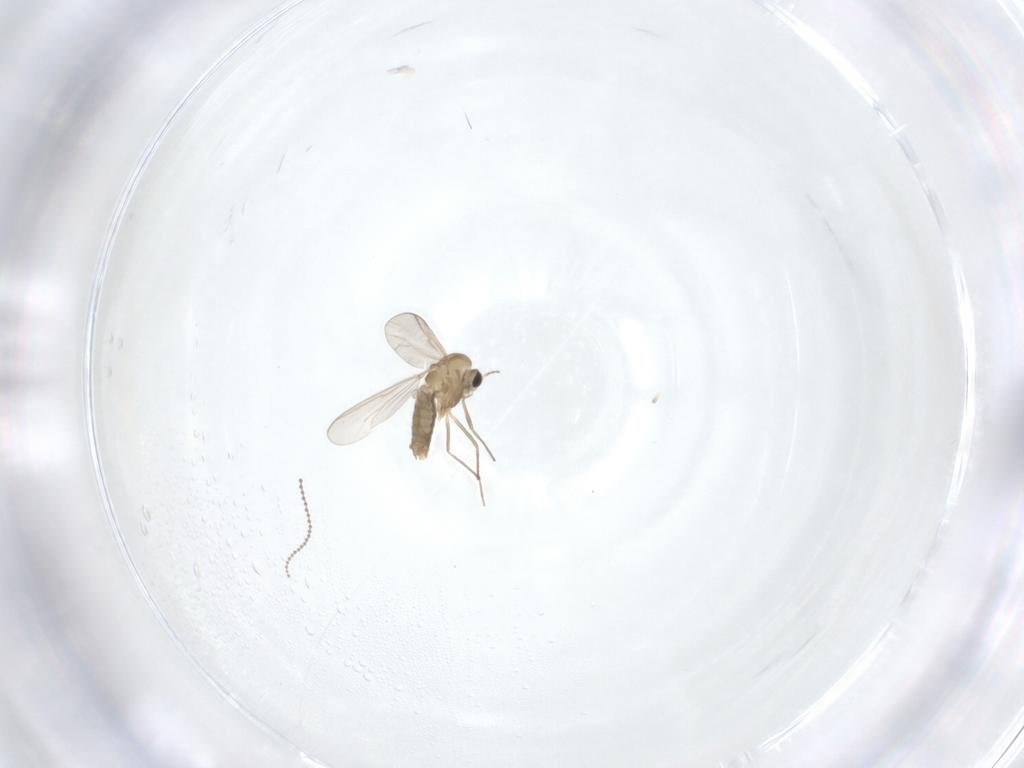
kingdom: Animalia
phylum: Arthropoda
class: Insecta
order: Diptera
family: Cecidomyiidae
